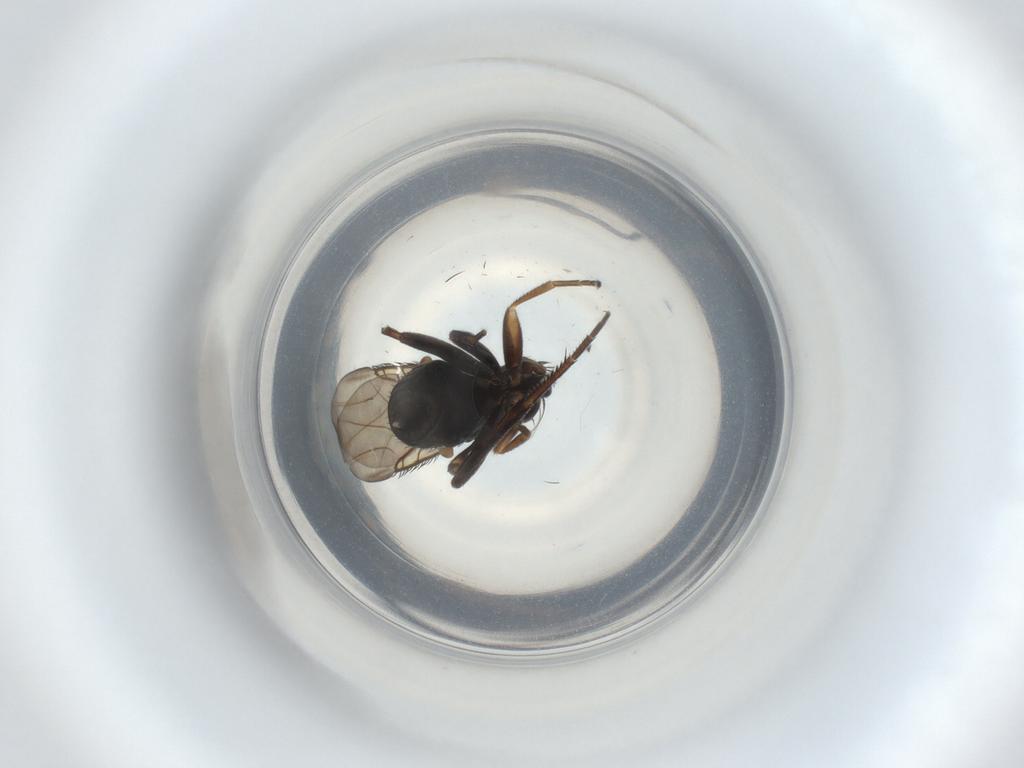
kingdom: Animalia
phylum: Arthropoda
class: Insecta
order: Diptera
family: Phoridae
